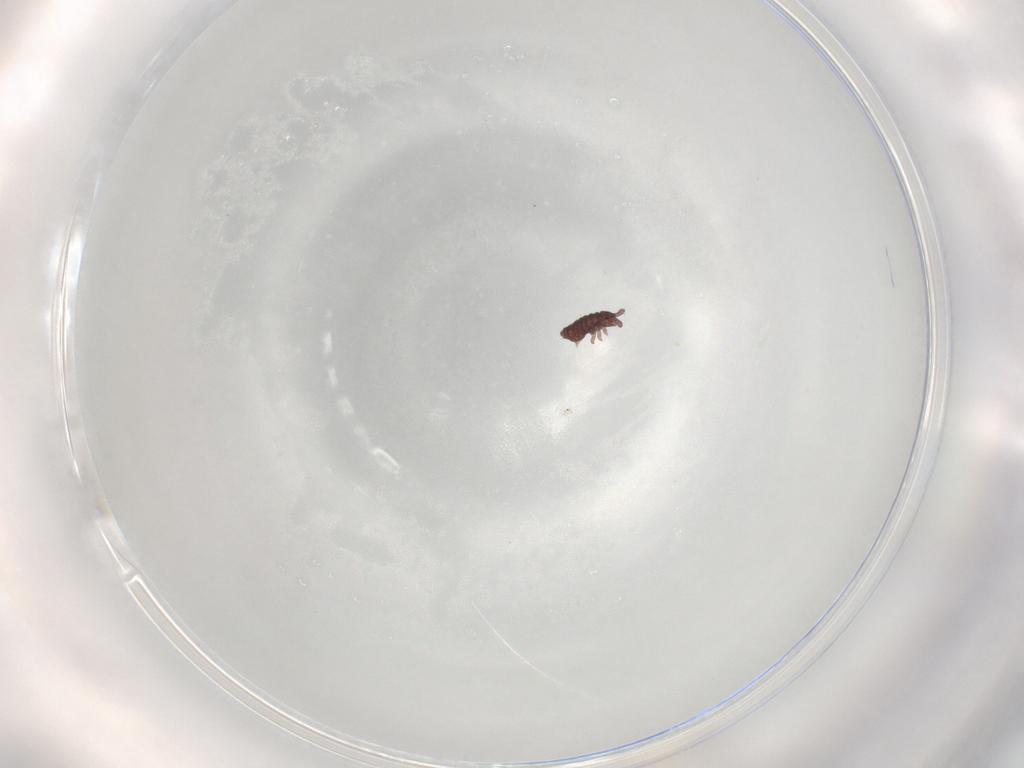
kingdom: Animalia
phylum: Arthropoda
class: Collembola
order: Poduromorpha
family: Hypogastruridae
